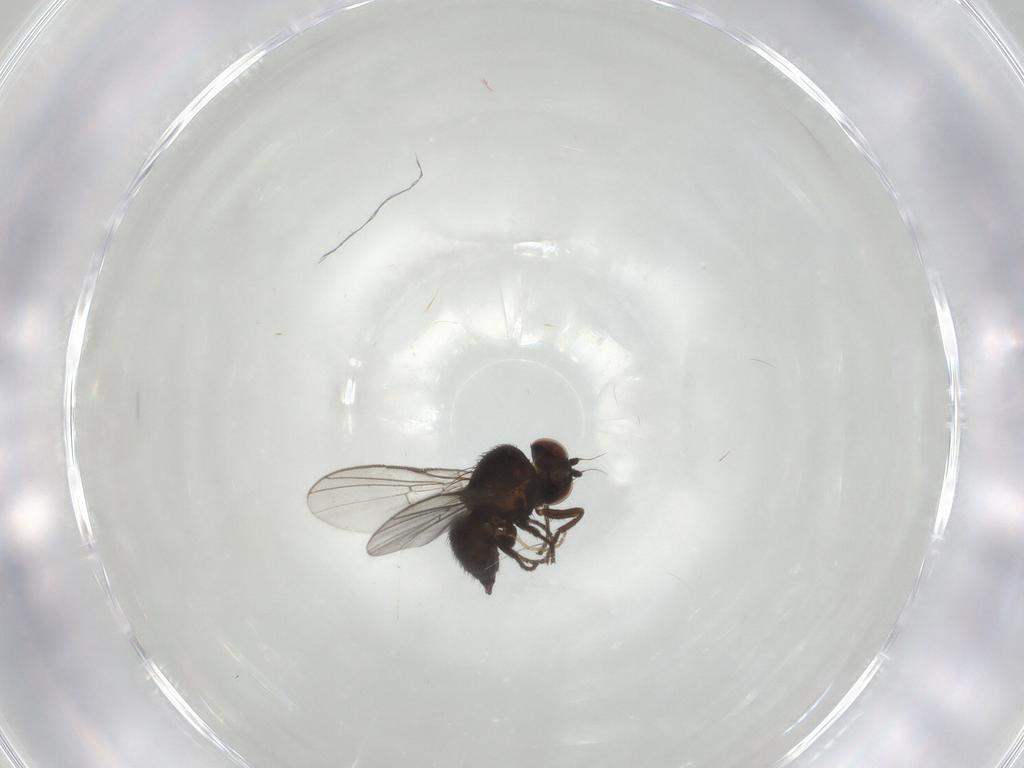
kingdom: Animalia
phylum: Arthropoda
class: Insecta
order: Diptera
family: Agromyzidae
